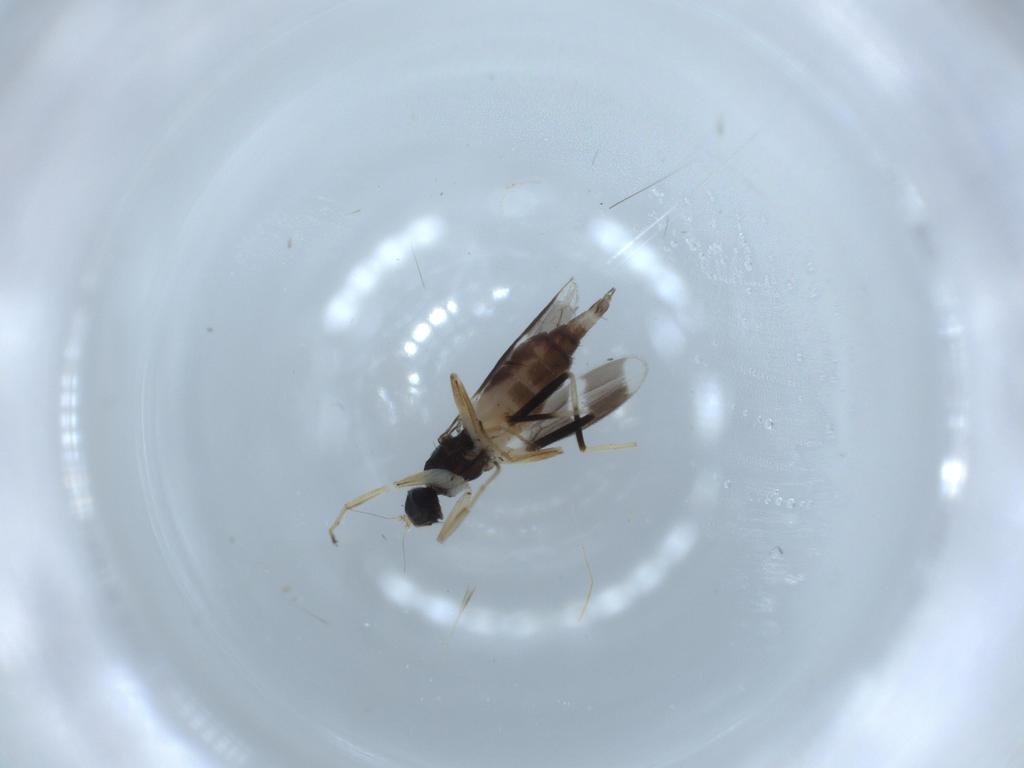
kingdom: Animalia
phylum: Arthropoda
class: Insecta
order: Diptera
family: Hybotidae
